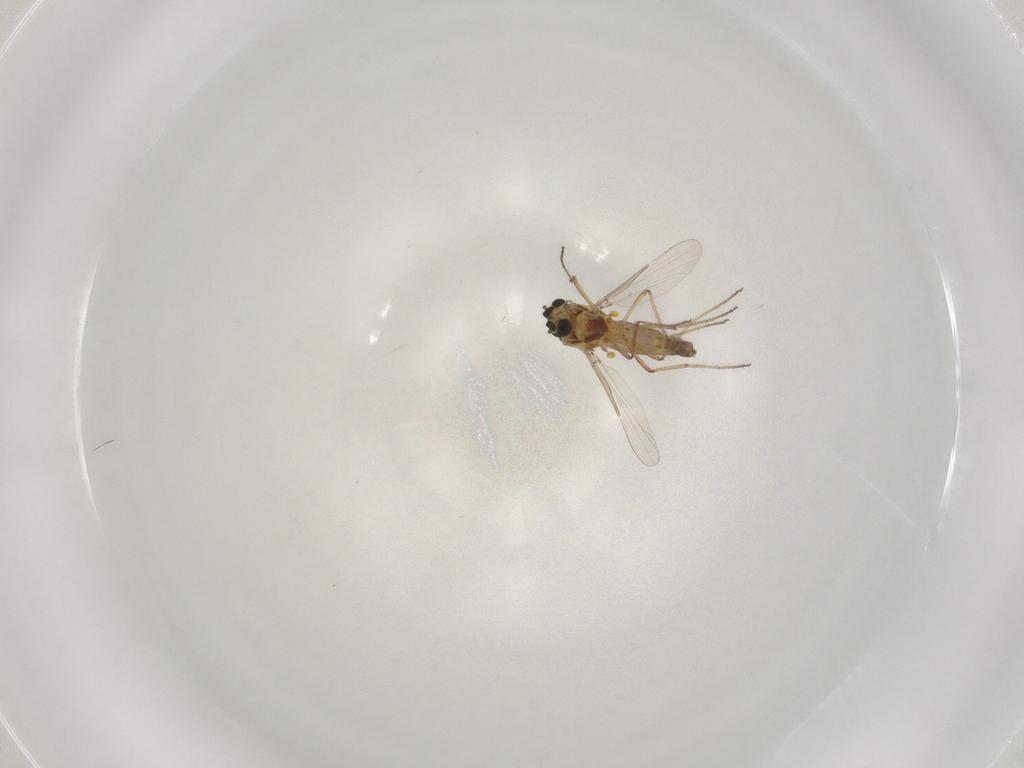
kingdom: Animalia
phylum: Arthropoda
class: Insecta
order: Diptera
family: Ceratopogonidae
